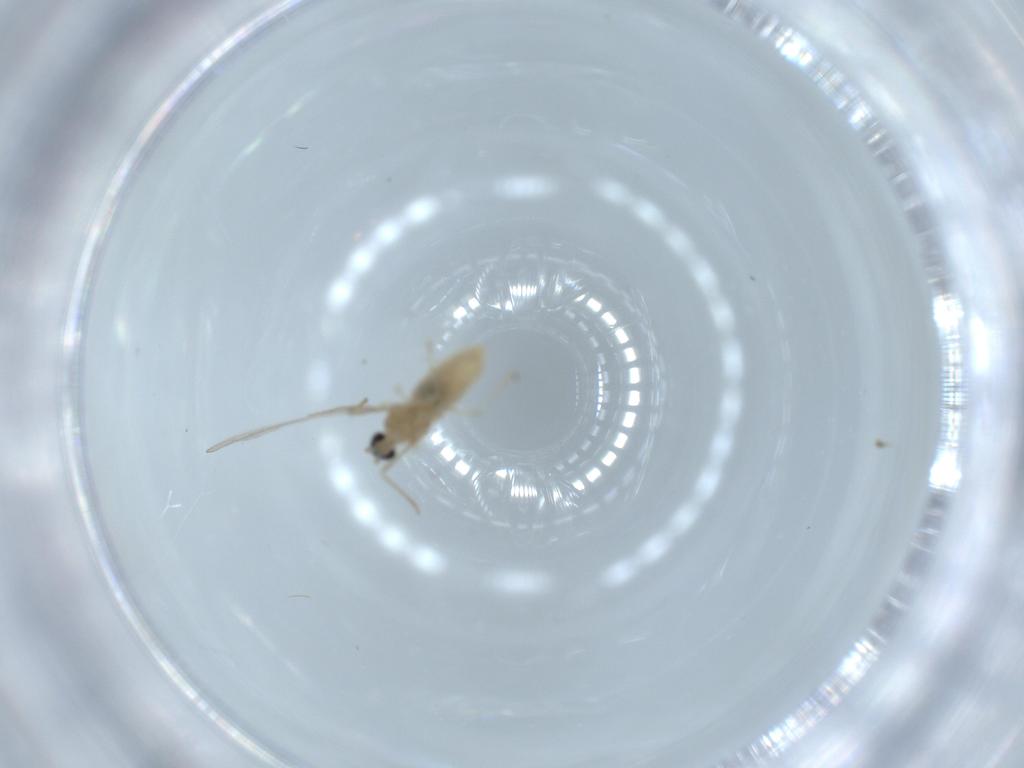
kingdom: Animalia
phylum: Arthropoda
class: Insecta
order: Diptera
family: Cecidomyiidae
